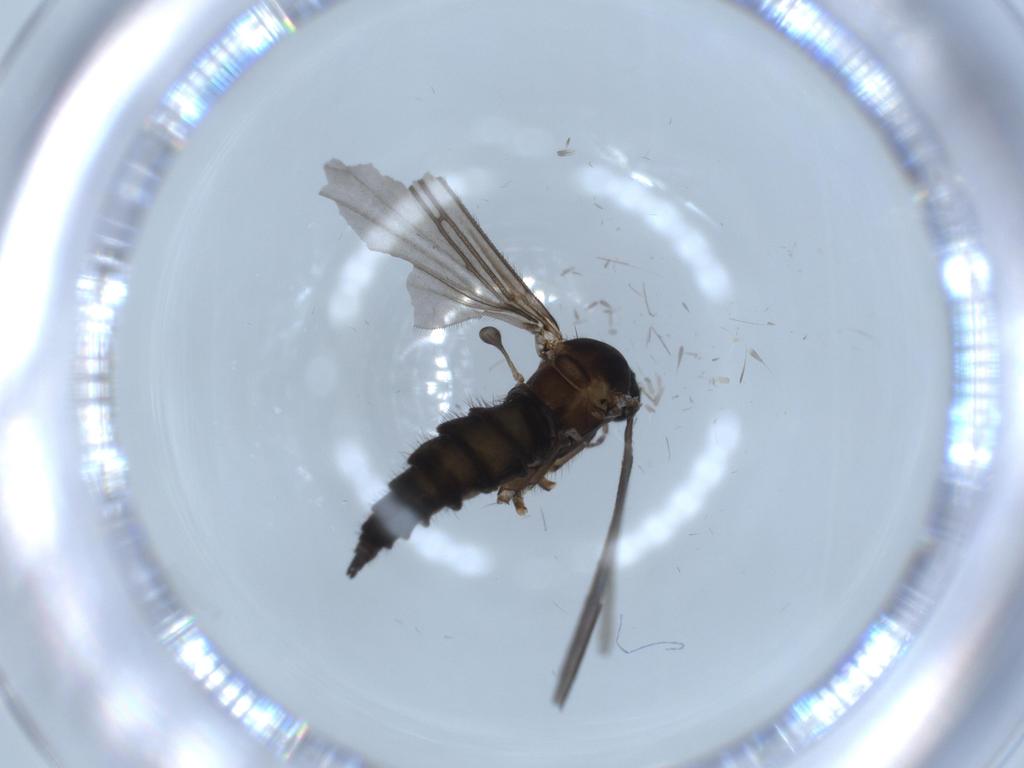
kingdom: Animalia
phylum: Arthropoda
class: Insecta
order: Diptera
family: Sciaridae
